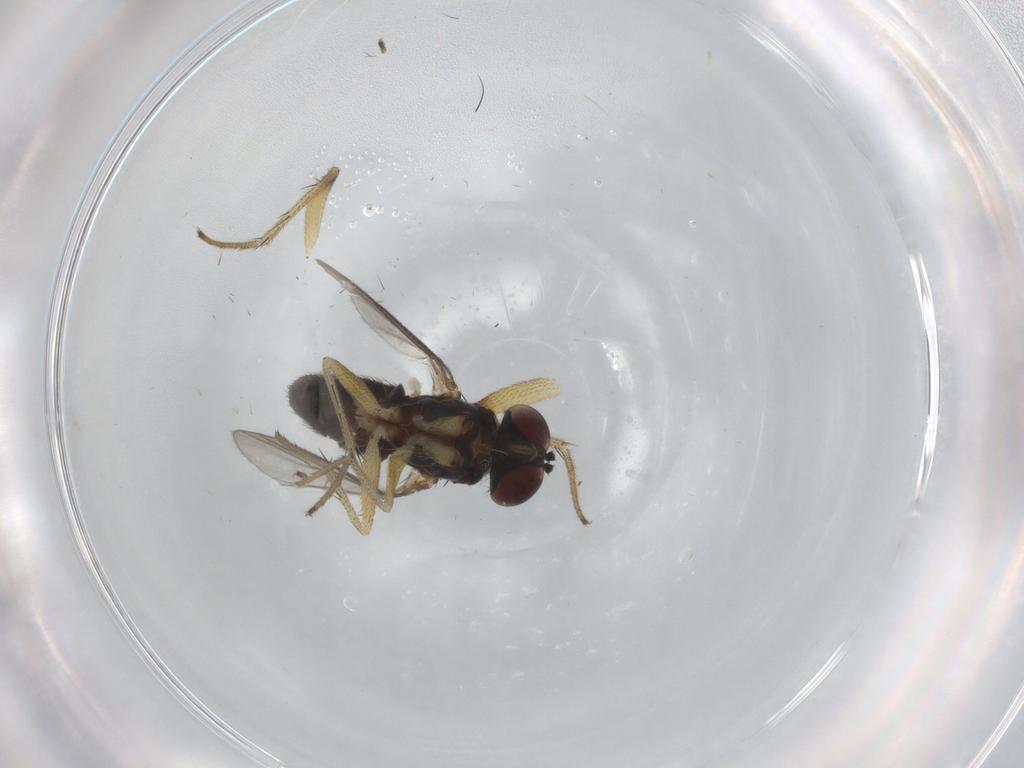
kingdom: Animalia
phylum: Arthropoda
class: Insecta
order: Diptera
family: Dolichopodidae
